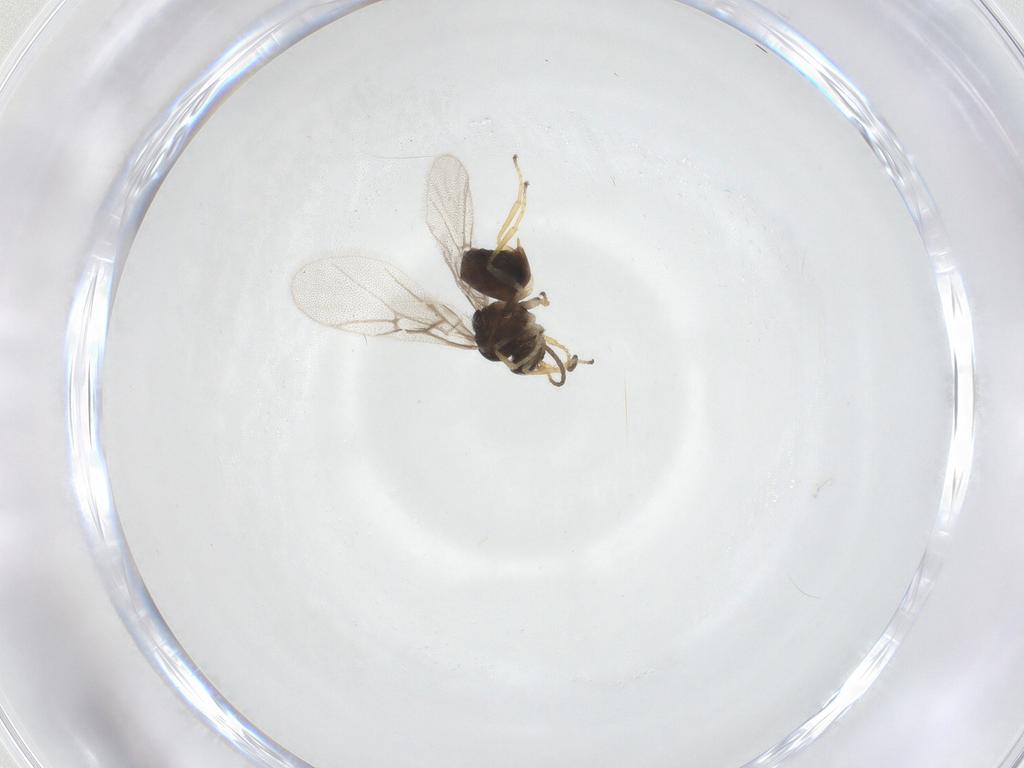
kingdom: Animalia
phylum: Arthropoda
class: Insecta
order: Hymenoptera
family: Cynipidae
